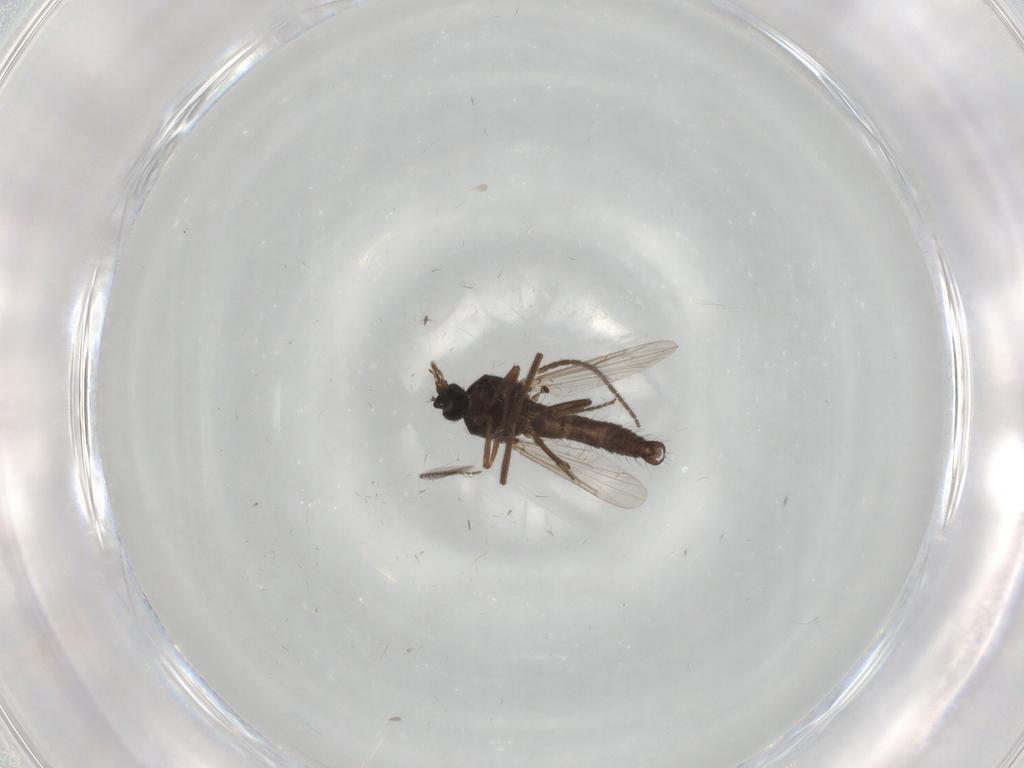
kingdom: Animalia
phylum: Arthropoda
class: Insecta
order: Diptera
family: Sciaridae
